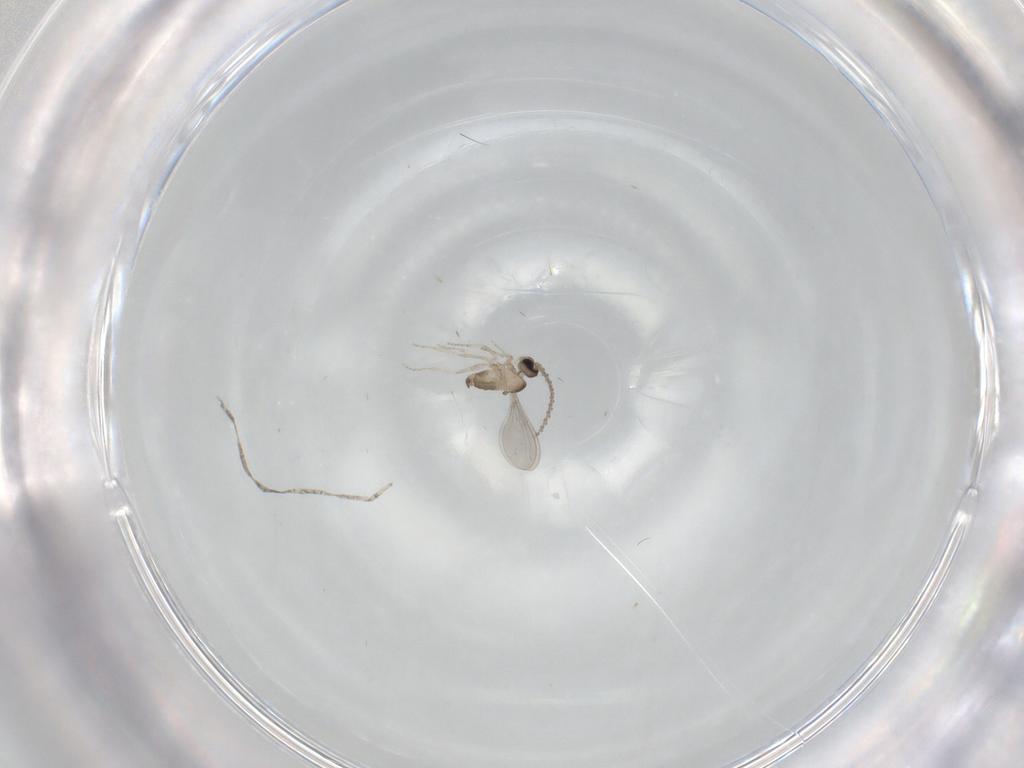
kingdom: Animalia
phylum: Arthropoda
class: Insecta
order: Diptera
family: Cecidomyiidae
